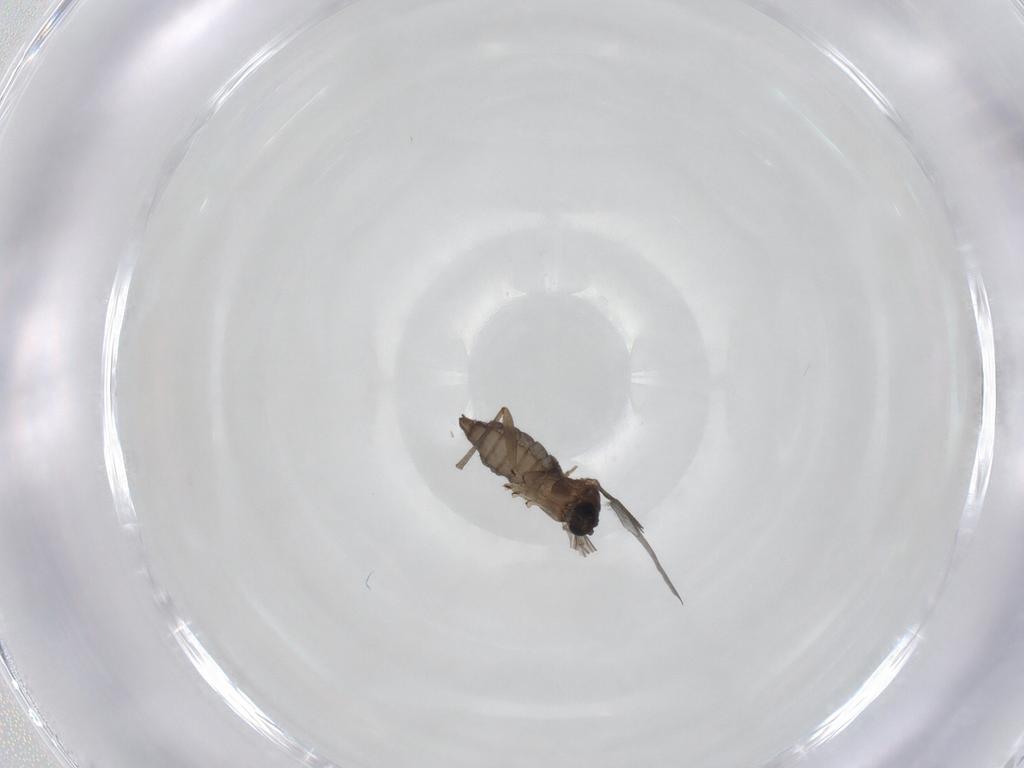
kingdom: Animalia
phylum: Arthropoda
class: Insecta
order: Diptera
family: Sciaridae
